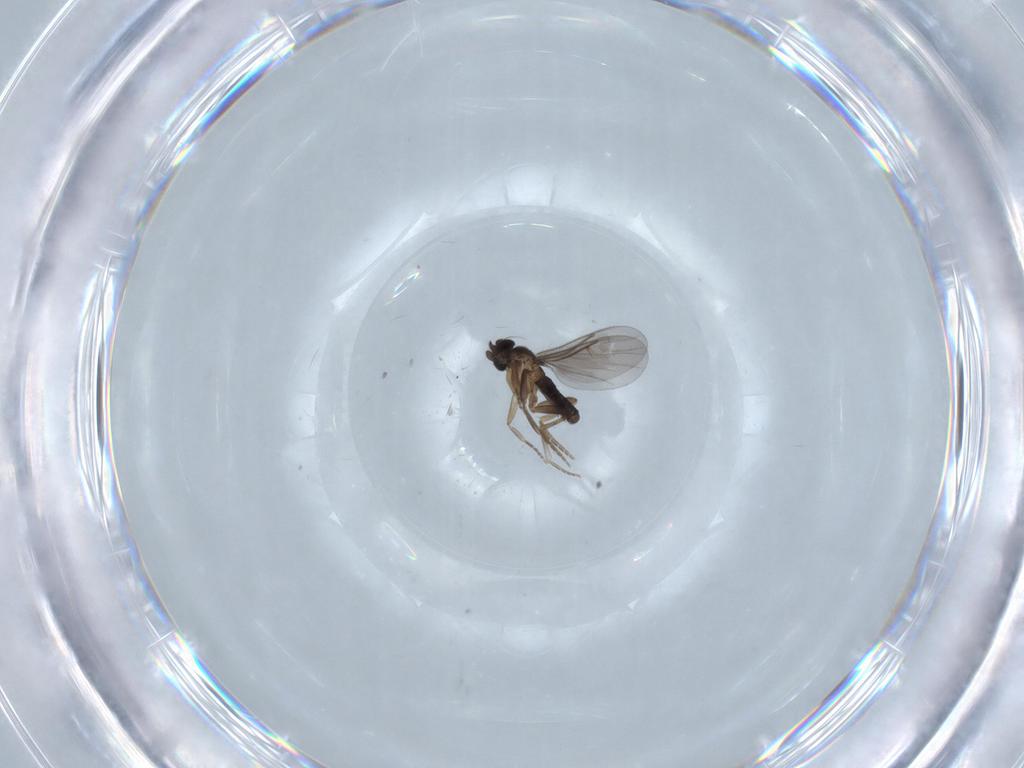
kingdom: Animalia
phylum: Arthropoda
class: Insecta
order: Diptera
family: Phoridae
